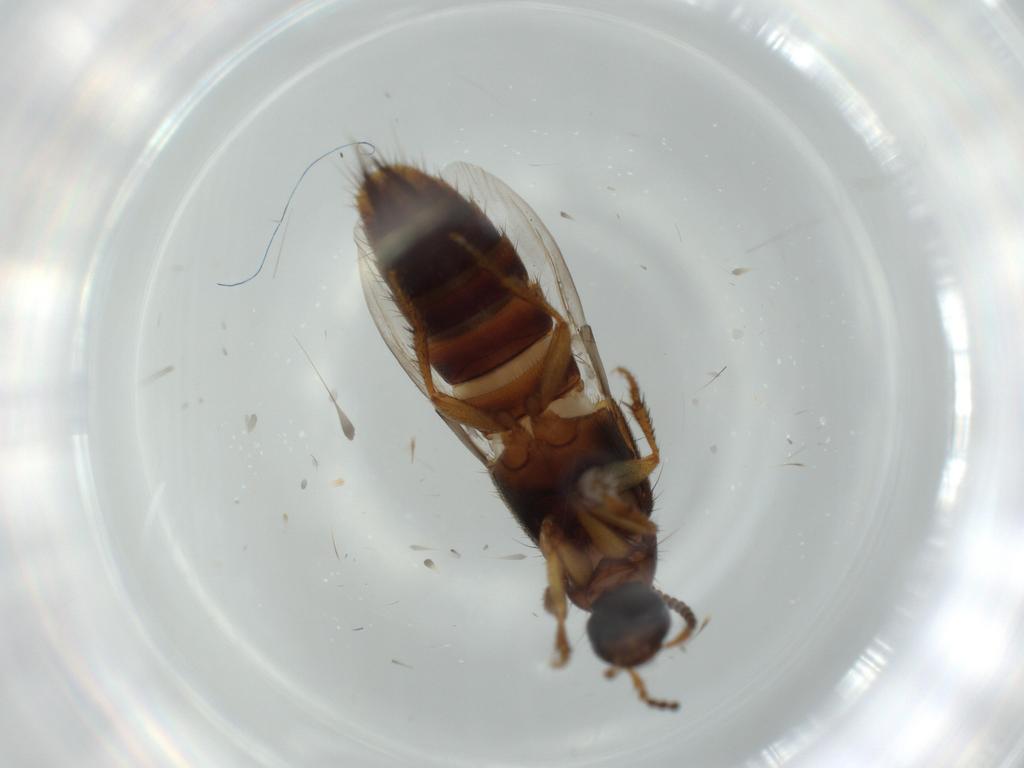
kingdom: Animalia
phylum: Arthropoda
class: Insecta
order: Coleoptera
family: Staphylinidae
